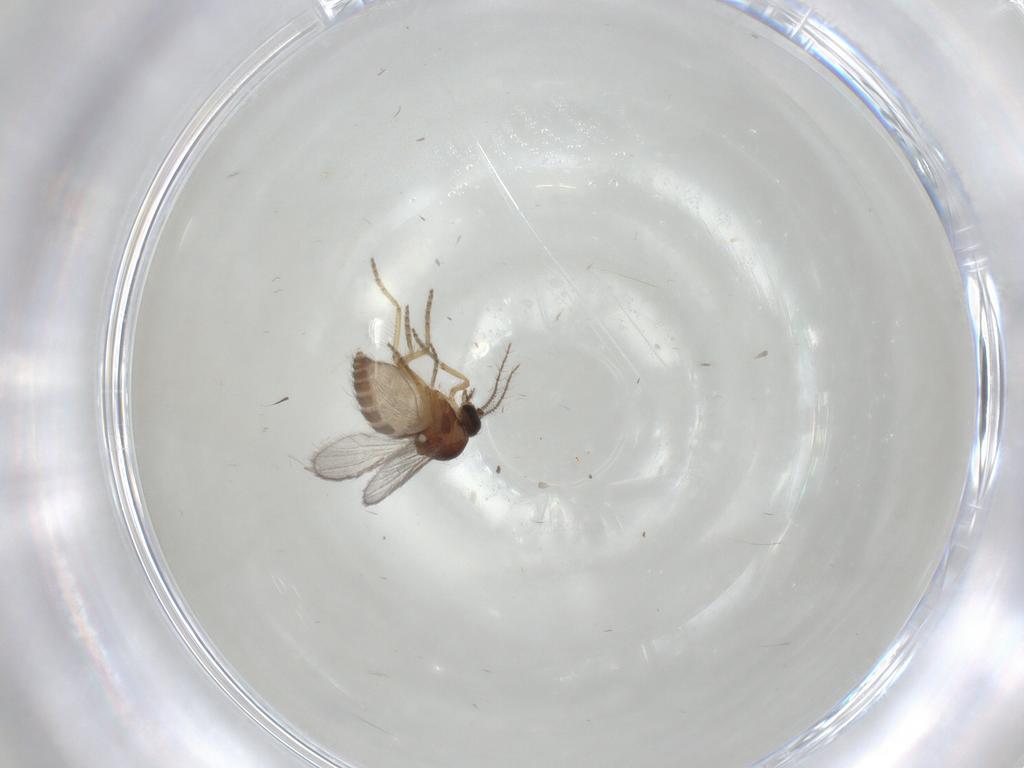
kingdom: Animalia
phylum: Arthropoda
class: Insecta
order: Diptera
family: Ceratopogonidae
